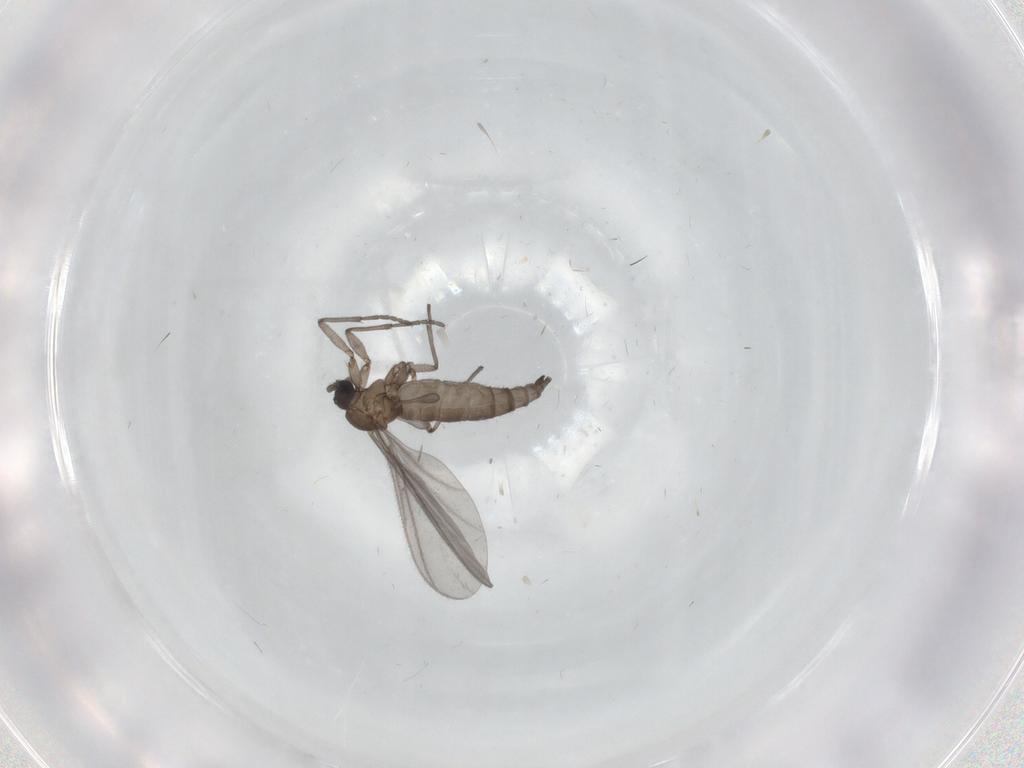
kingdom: Animalia
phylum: Arthropoda
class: Insecta
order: Diptera
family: Sciaridae
